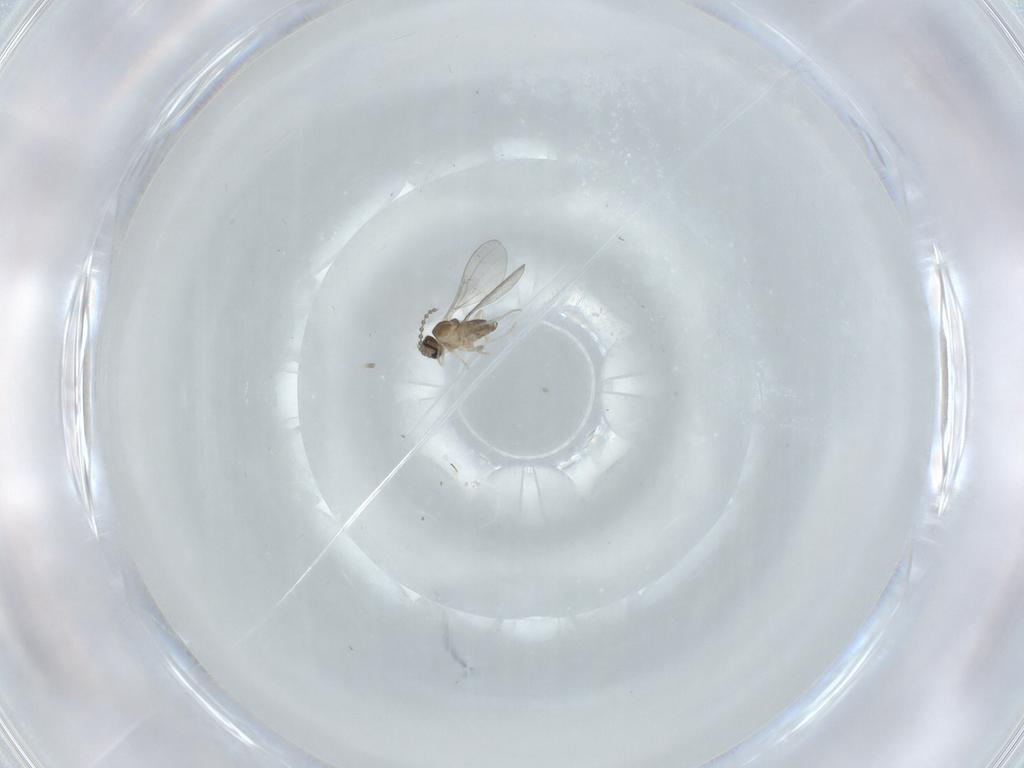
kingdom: Animalia
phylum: Arthropoda
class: Insecta
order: Diptera
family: Cecidomyiidae
